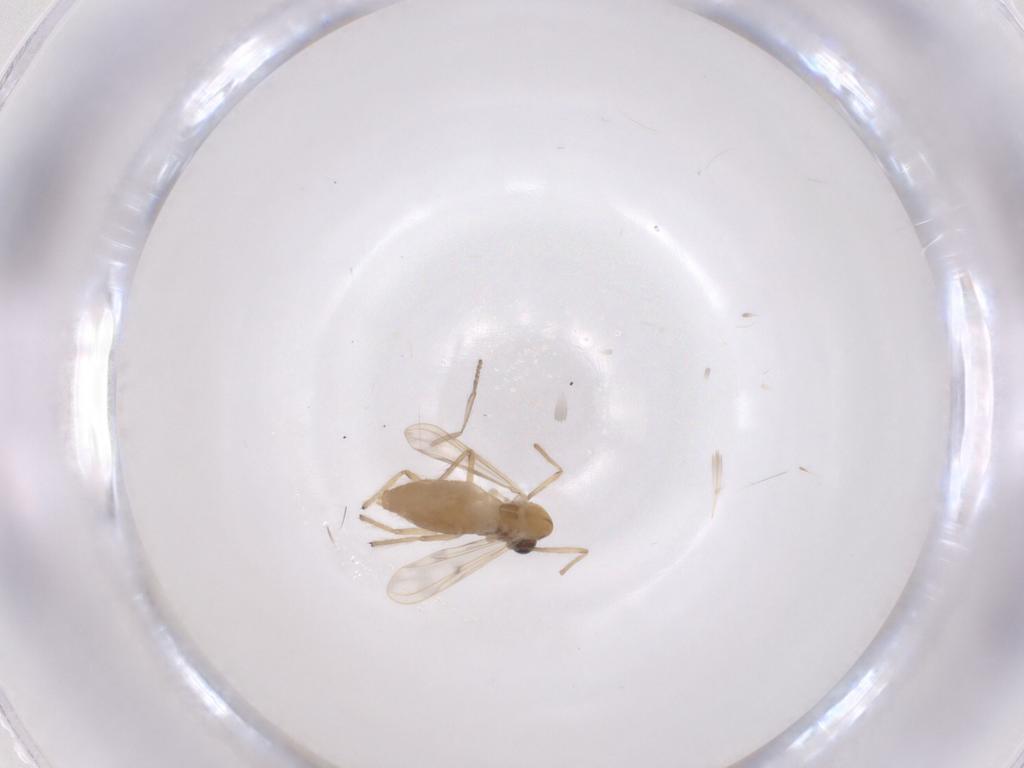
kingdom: Animalia
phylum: Arthropoda
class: Insecta
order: Diptera
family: Chironomidae
